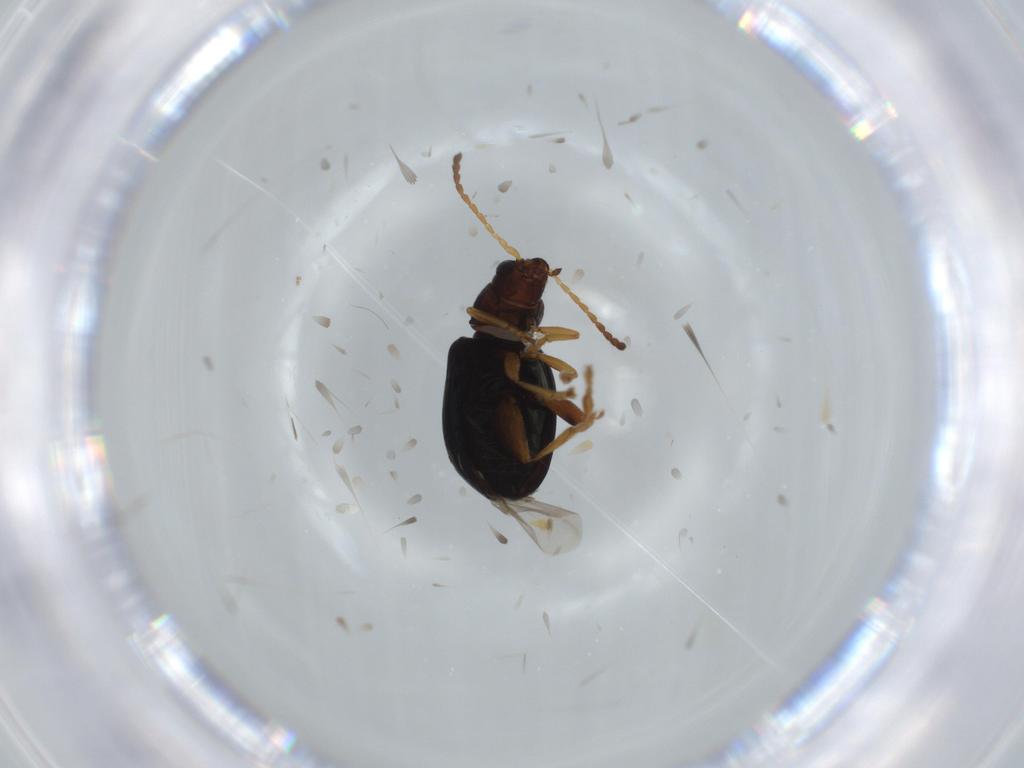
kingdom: Animalia
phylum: Arthropoda
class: Insecta
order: Coleoptera
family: Chrysomelidae
